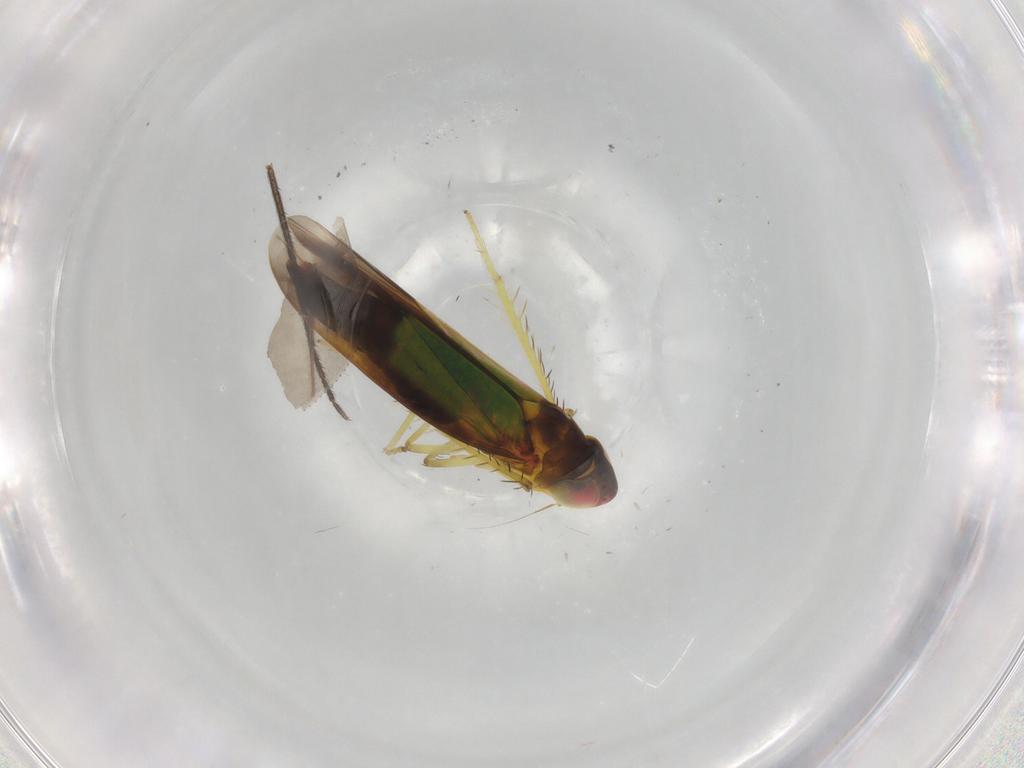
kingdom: Animalia
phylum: Arthropoda
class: Insecta
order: Hemiptera
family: Cicadellidae
